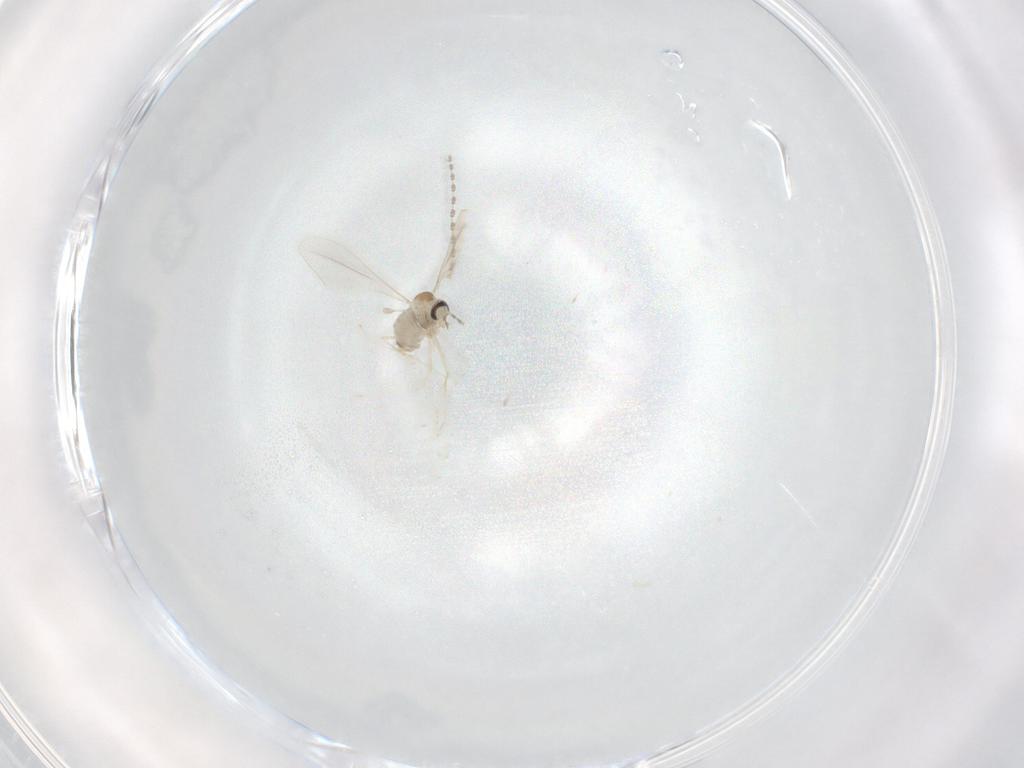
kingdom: Animalia
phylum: Arthropoda
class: Insecta
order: Diptera
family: Cecidomyiidae
